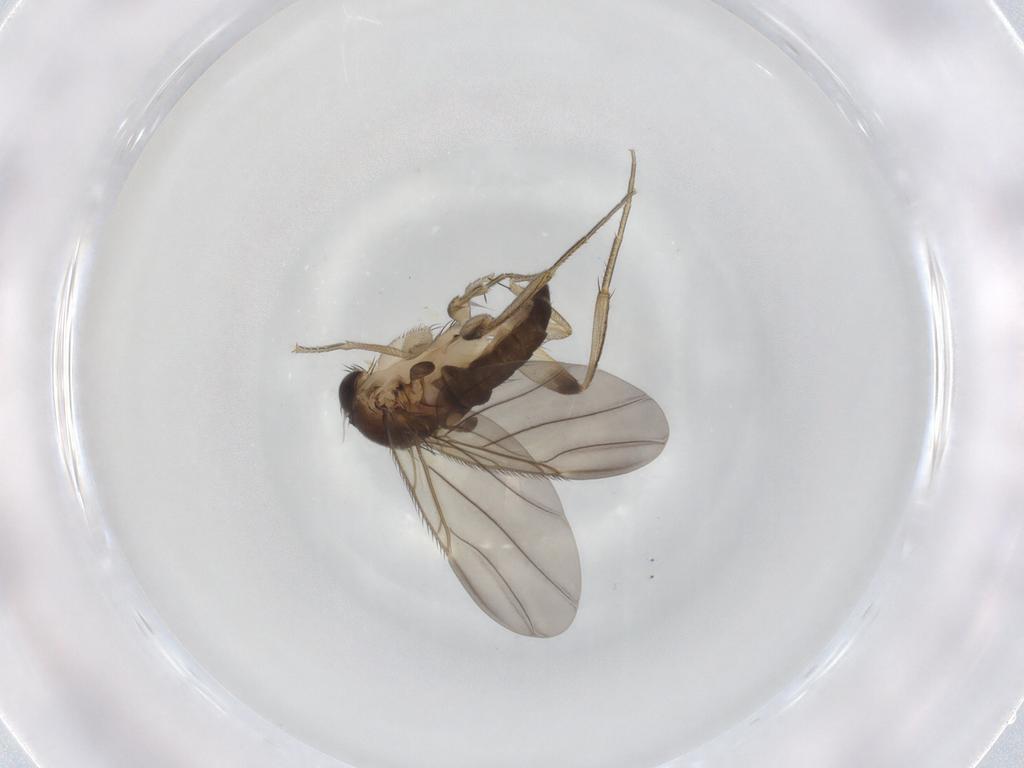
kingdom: Animalia
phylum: Arthropoda
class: Insecta
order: Diptera
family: Phoridae
